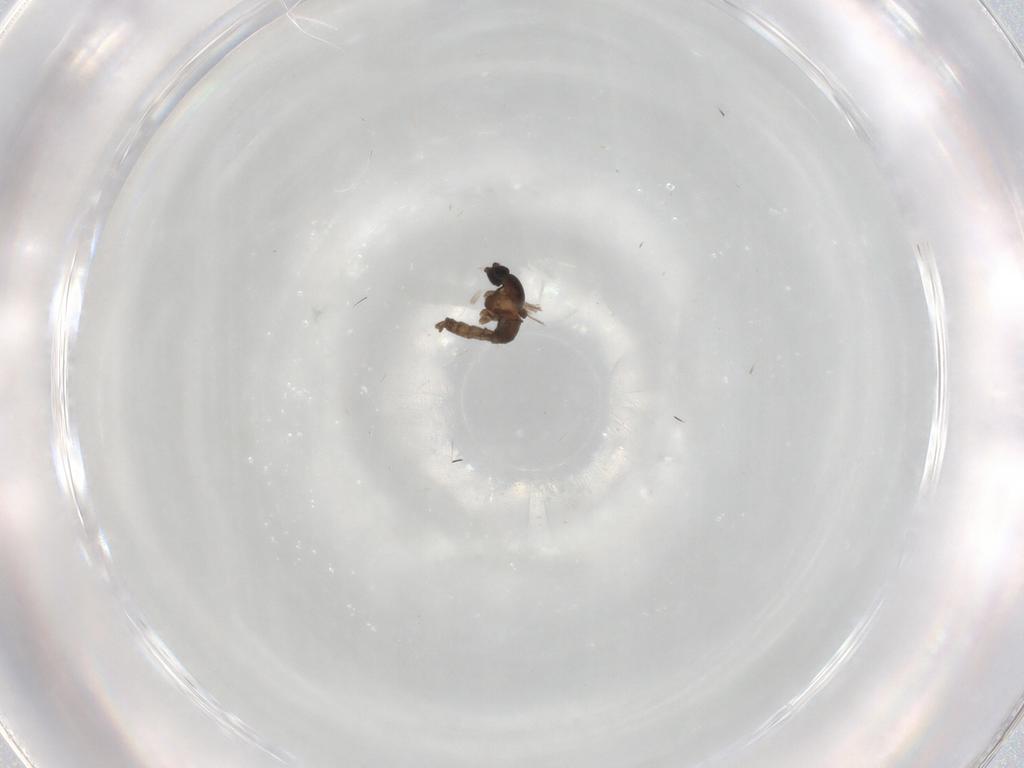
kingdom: Animalia
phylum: Arthropoda
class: Insecta
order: Diptera
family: Cecidomyiidae
